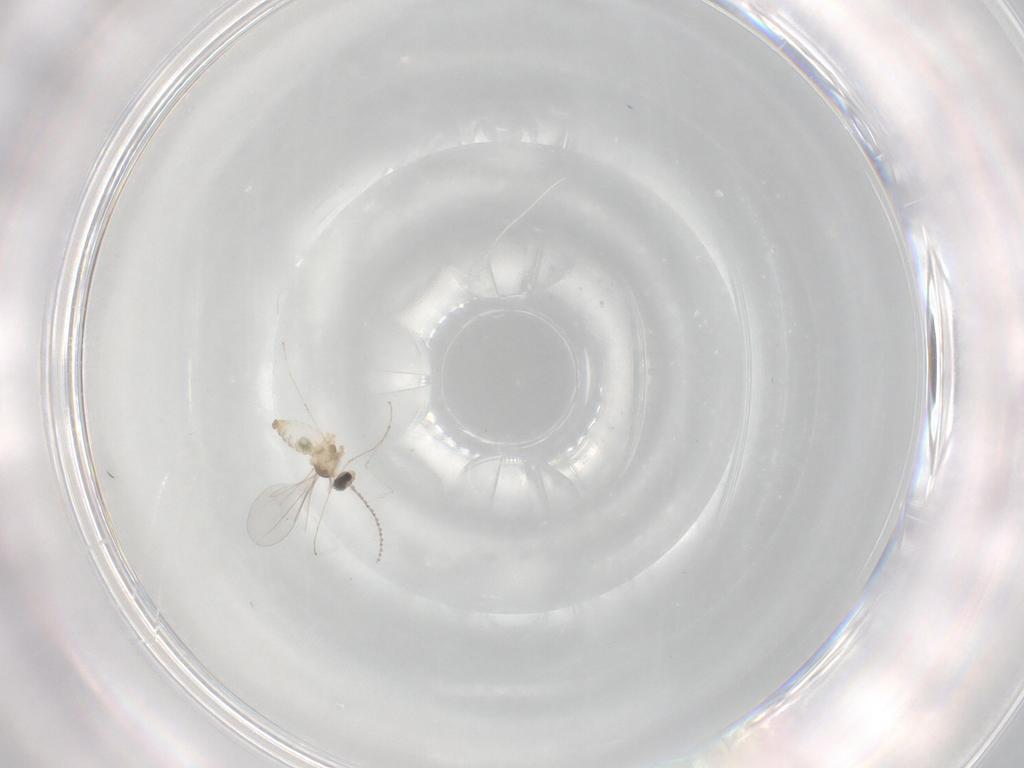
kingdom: Animalia
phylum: Arthropoda
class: Insecta
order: Diptera
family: Cecidomyiidae
